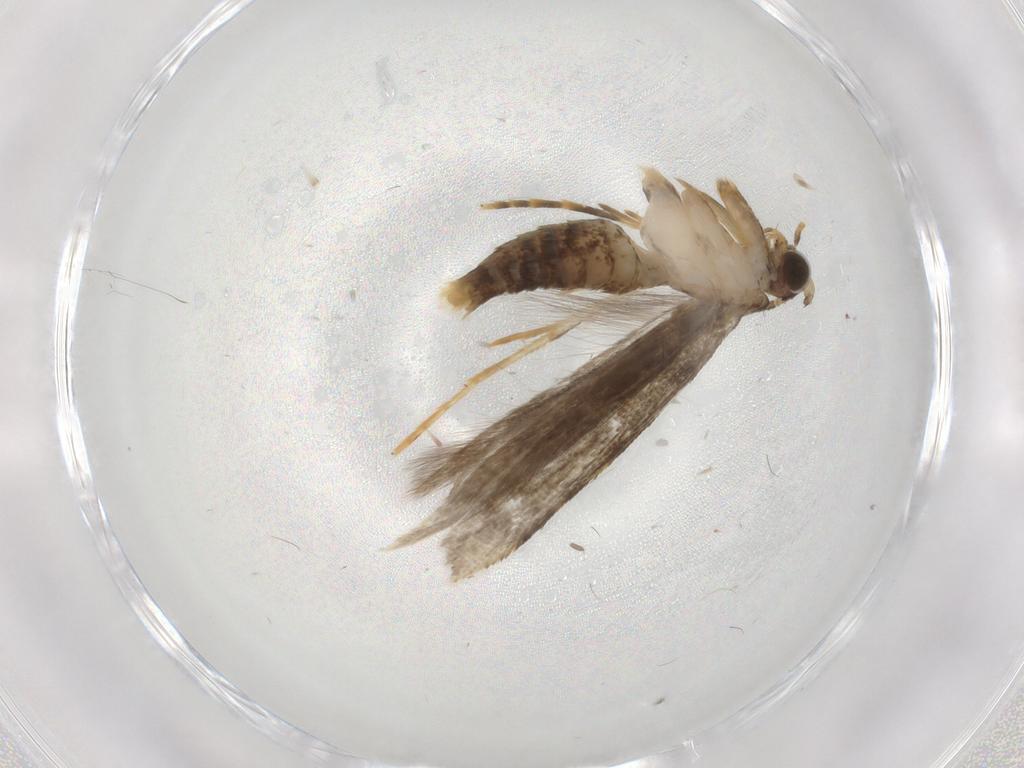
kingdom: Animalia
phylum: Arthropoda
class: Insecta
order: Lepidoptera
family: Tineidae
